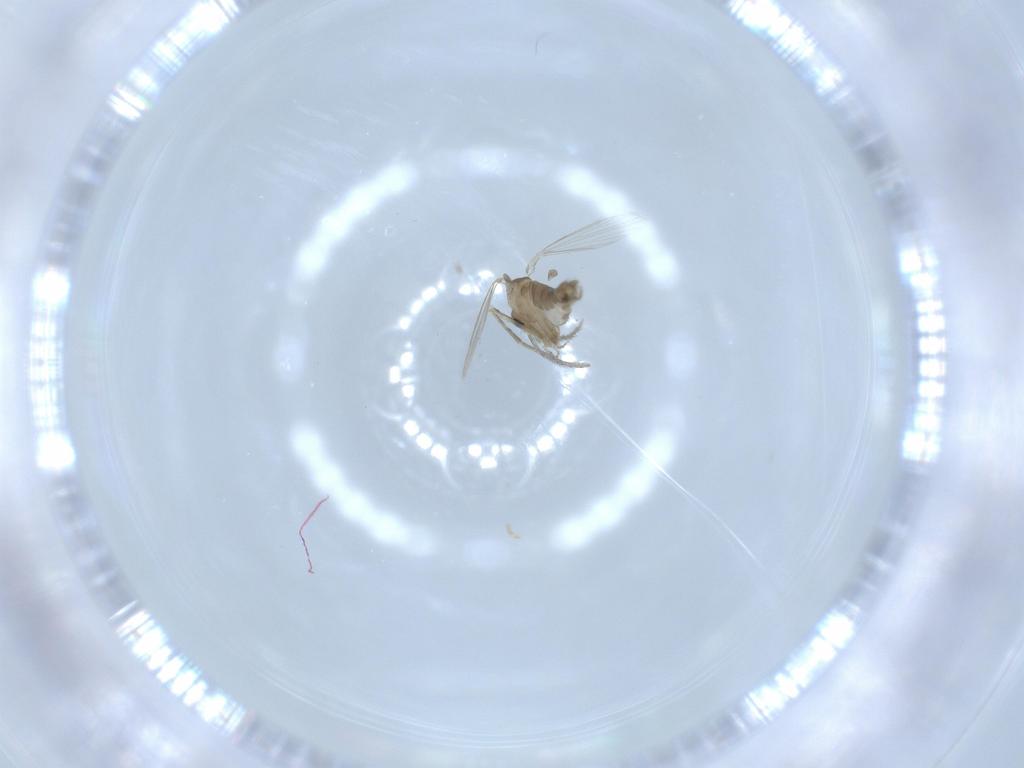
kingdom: Animalia
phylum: Arthropoda
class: Insecta
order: Diptera
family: Psychodidae
